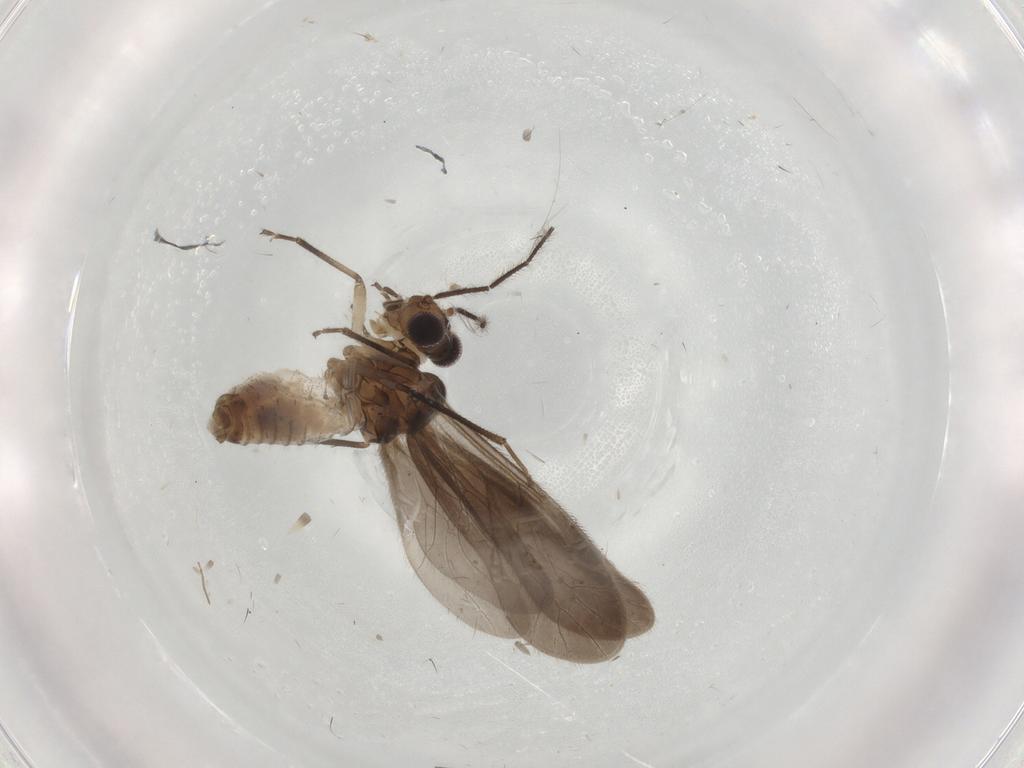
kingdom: Animalia
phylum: Arthropoda
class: Insecta
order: Psocodea
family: Caeciliusidae
